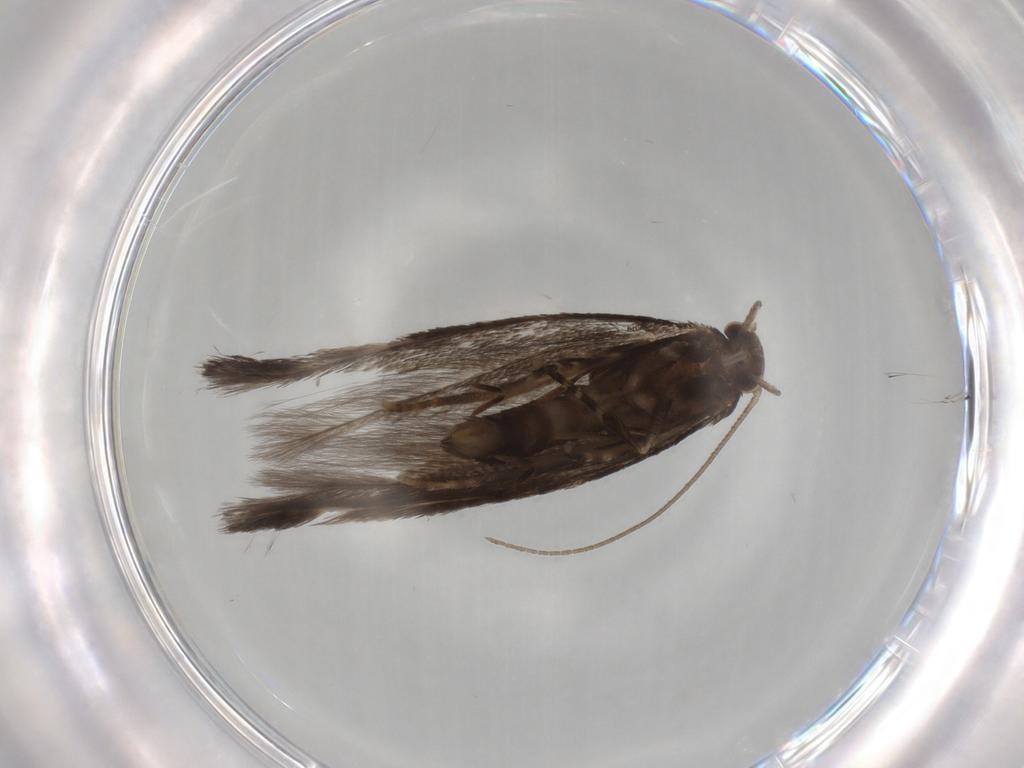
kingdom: Animalia
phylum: Arthropoda
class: Insecta
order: Lepidoptera
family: Elachistidae
